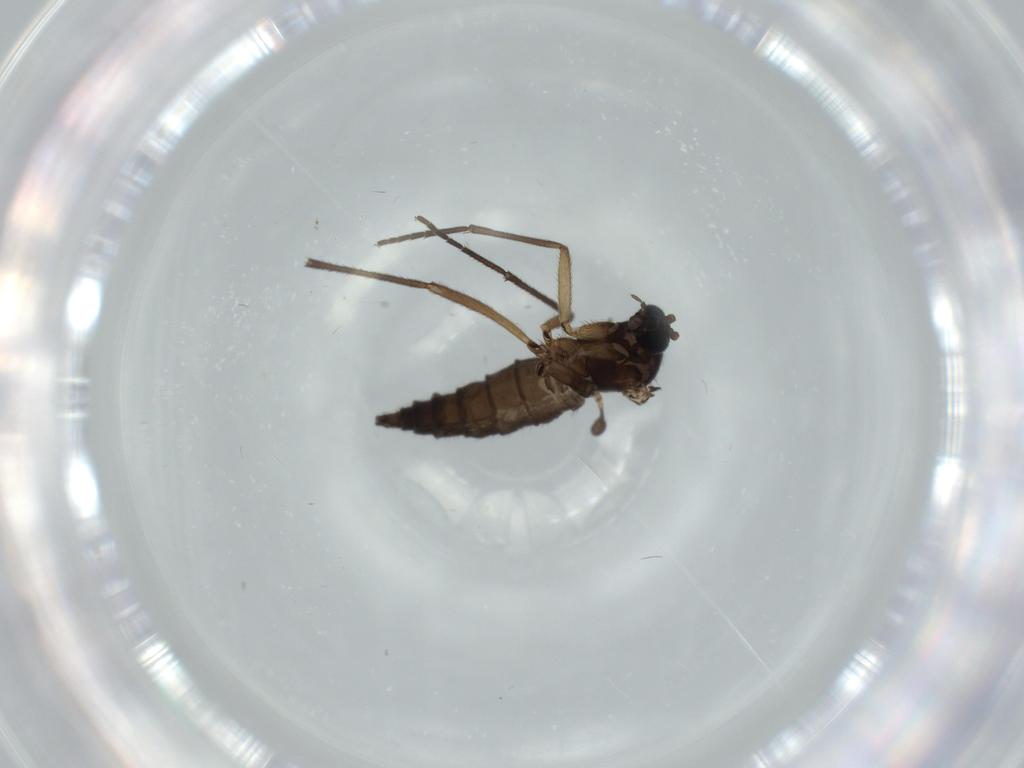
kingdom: Animalia
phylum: Arthropoda
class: Insecta
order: Diptera
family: Sciaridae
